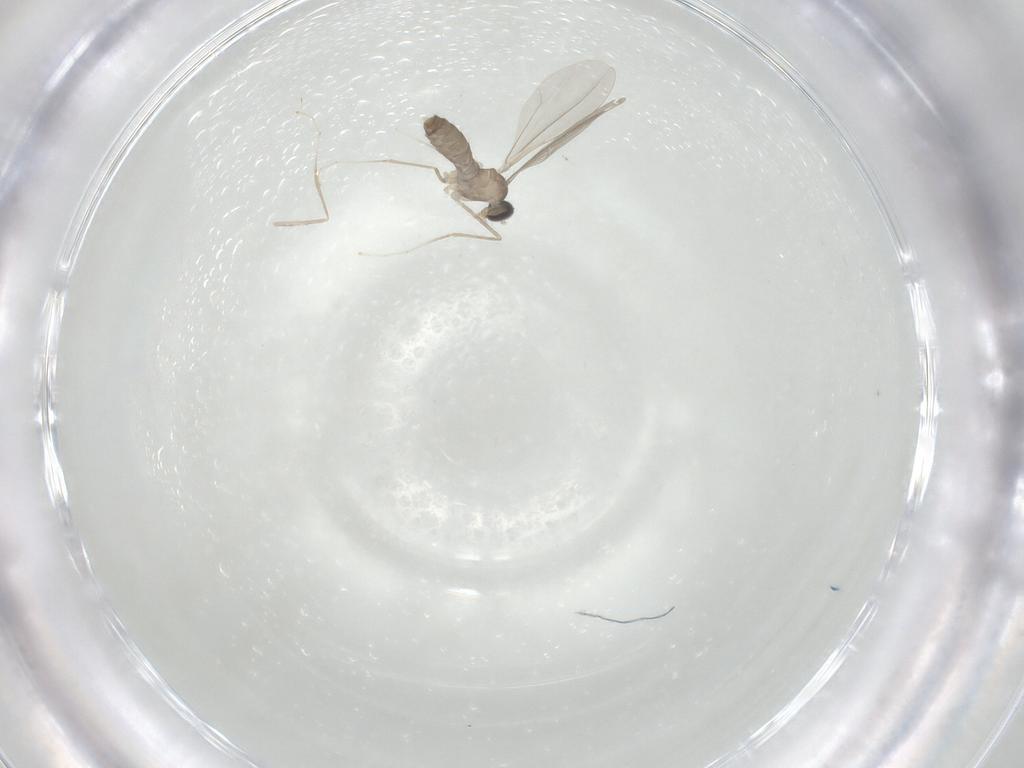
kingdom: Animalia
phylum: Arthropoda
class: Insecta
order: Diptera
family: Cecidomyiidae
